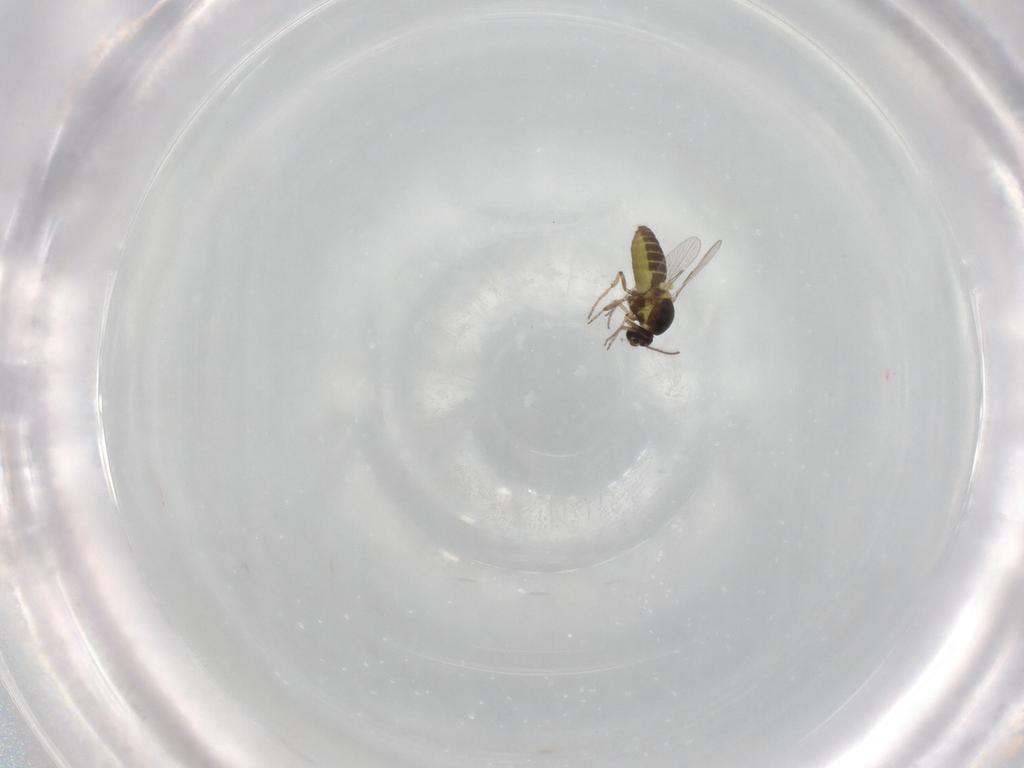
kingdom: Animalia
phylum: Arthropoda
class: Insecta
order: Diptera
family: Ceratopogonidae
